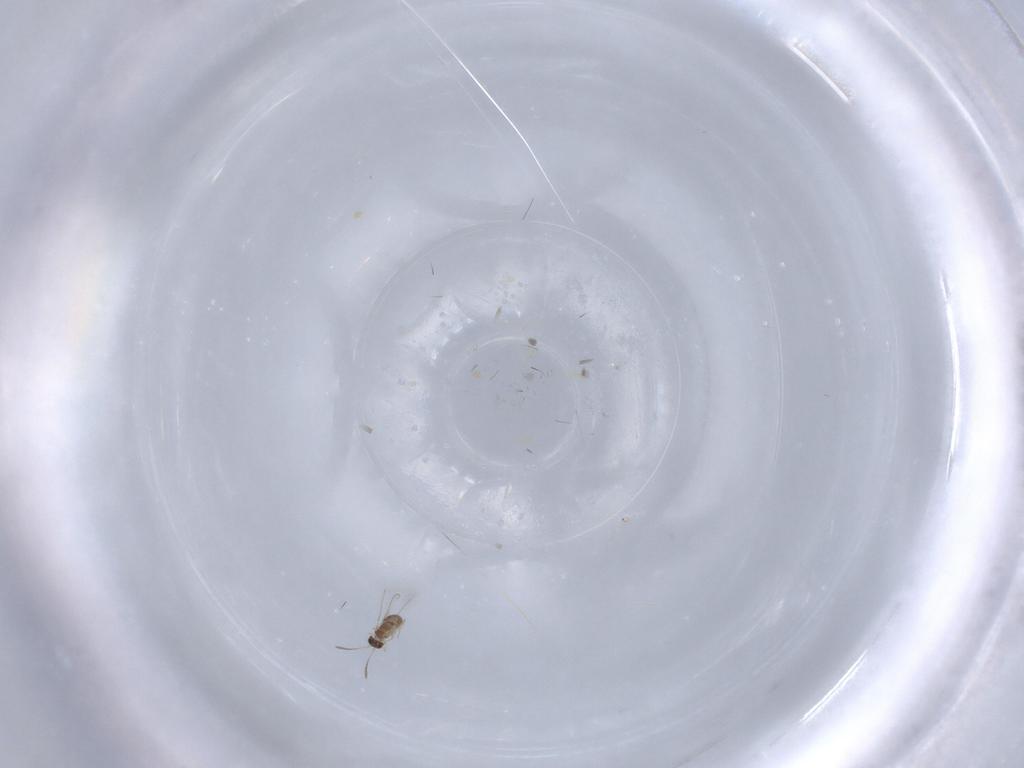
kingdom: Animalia
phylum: Arthropoda
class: Insecta
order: Hymenoptera
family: Mymaridae
